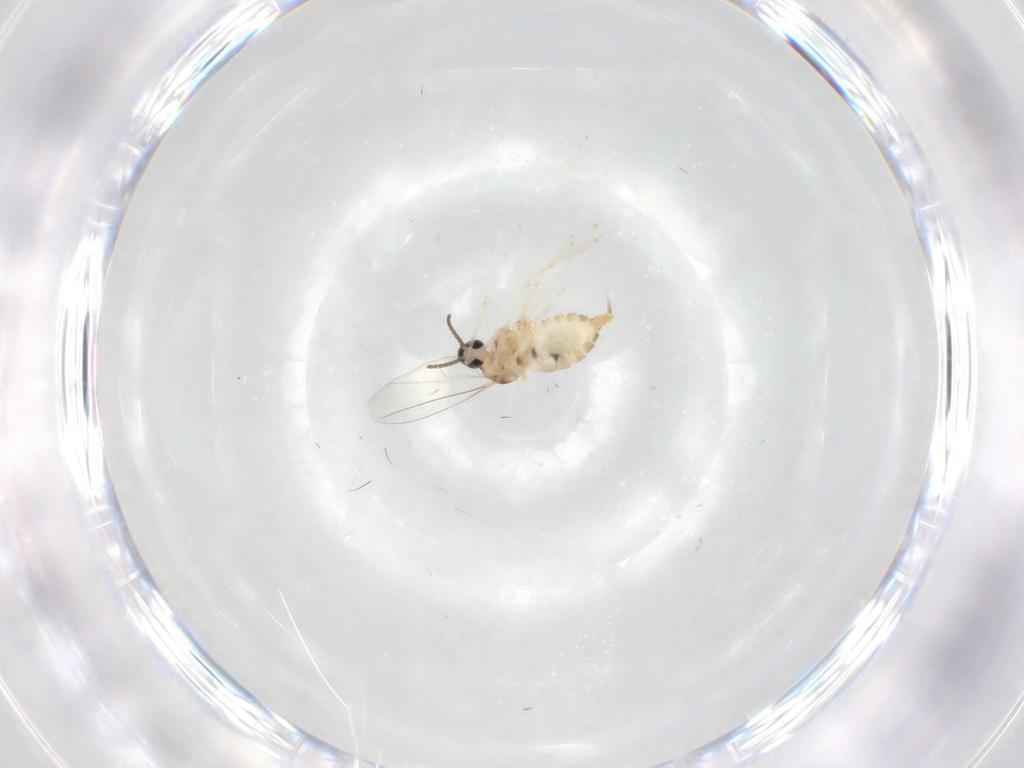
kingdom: Animalia
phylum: Arthropoda
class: Insecta
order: Diptera
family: Cecidomyiidae
